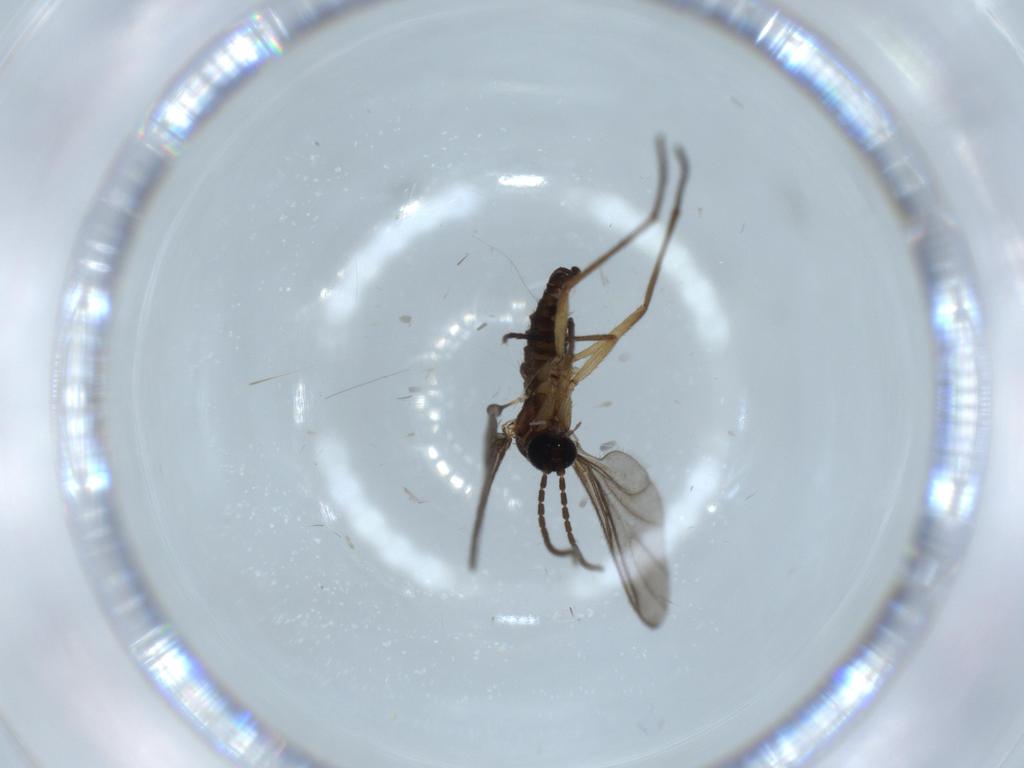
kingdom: Animalia
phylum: Arthropoda
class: Insecta
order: Diptera
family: Sciaridae
